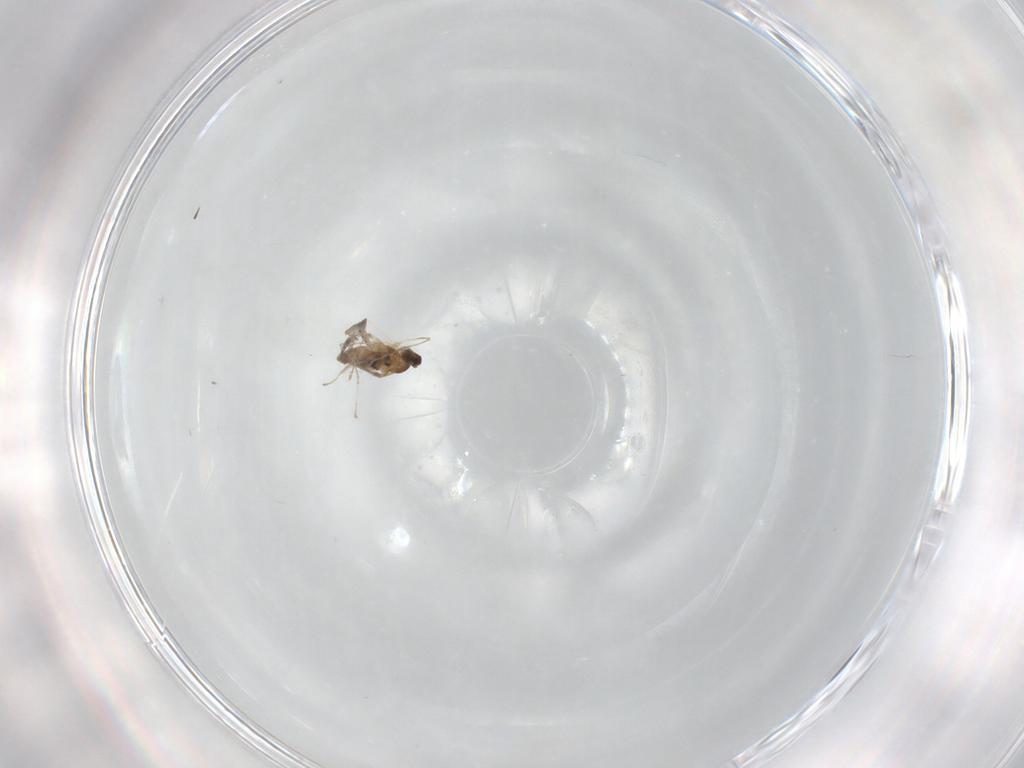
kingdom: Animalia
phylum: Arthropoda
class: Insecta
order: Diptera
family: Cecidomyiidae
